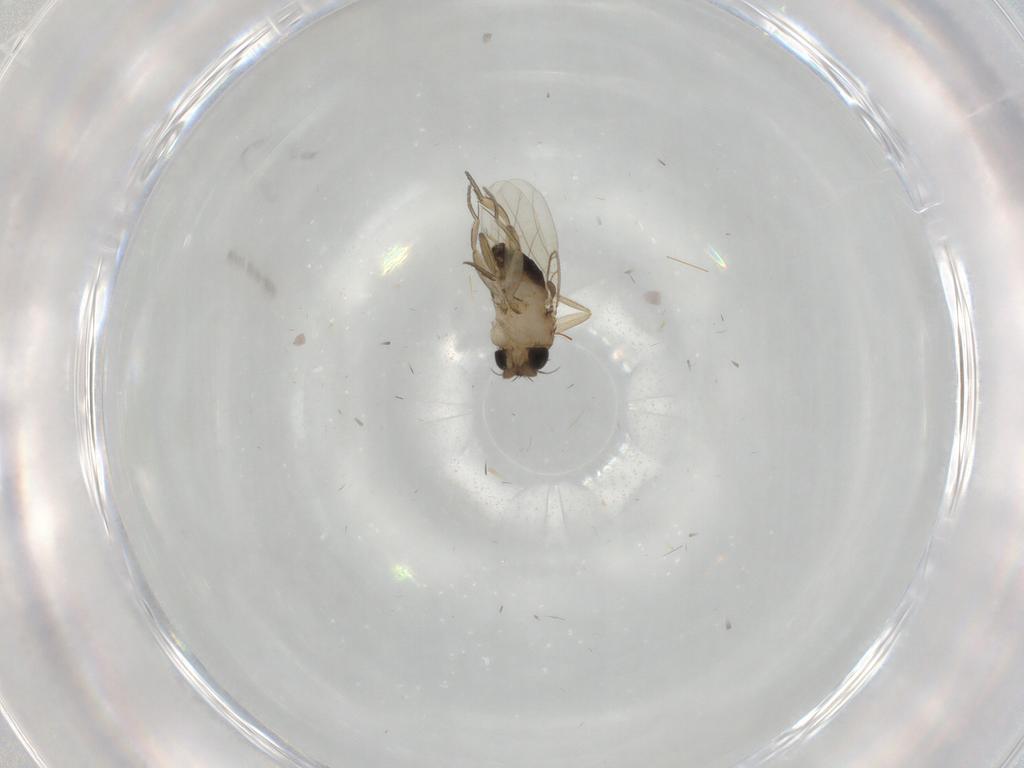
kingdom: Animalia
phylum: Arthropoda
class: Insecta
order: Diptera
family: Phoridae
